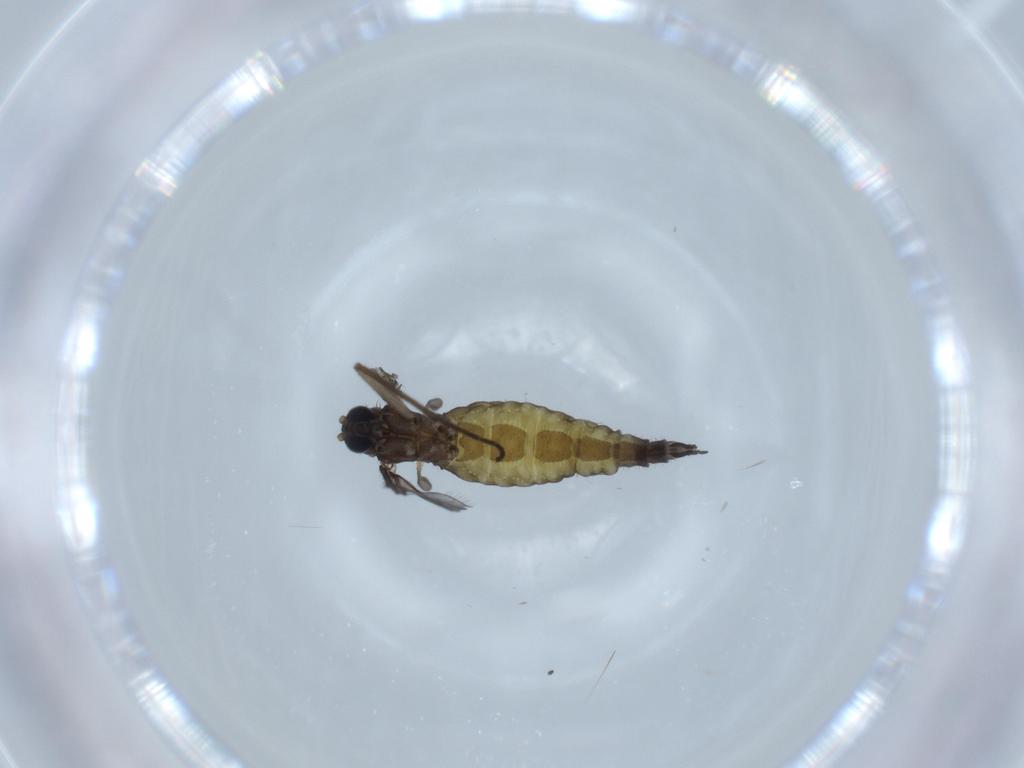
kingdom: Animalia
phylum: Arthropoda
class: Insecta
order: Diptera
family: Sciaridae
